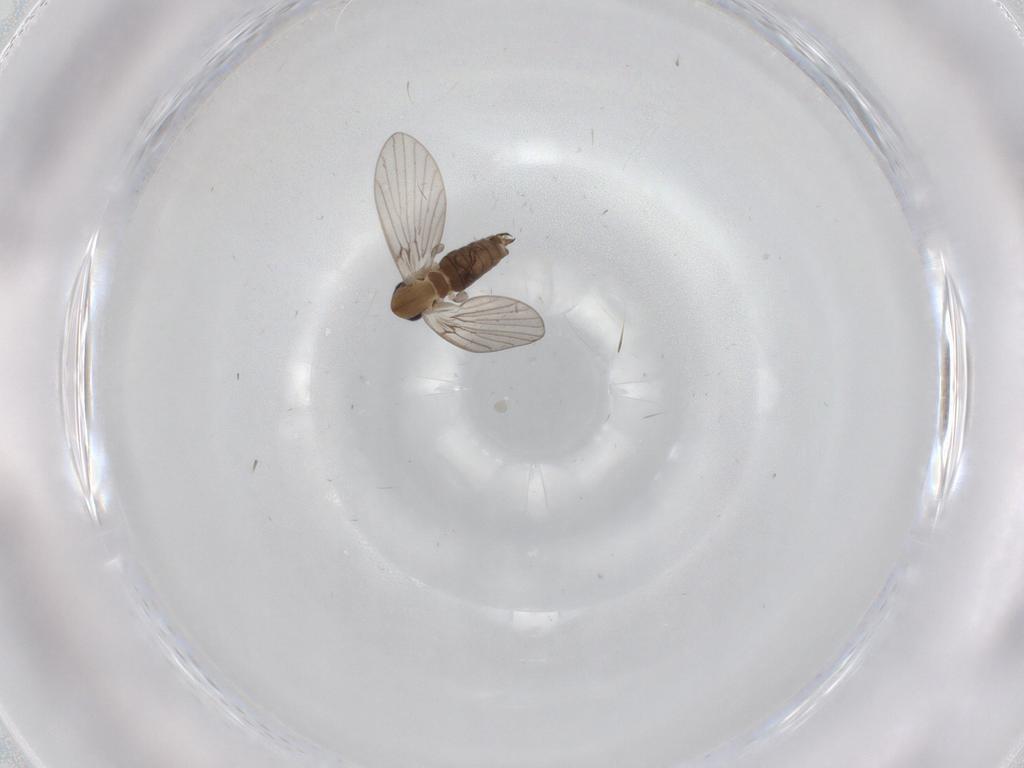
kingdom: Animalia
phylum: Arthropoda
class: Insecta
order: Diptera
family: Psychodidae
